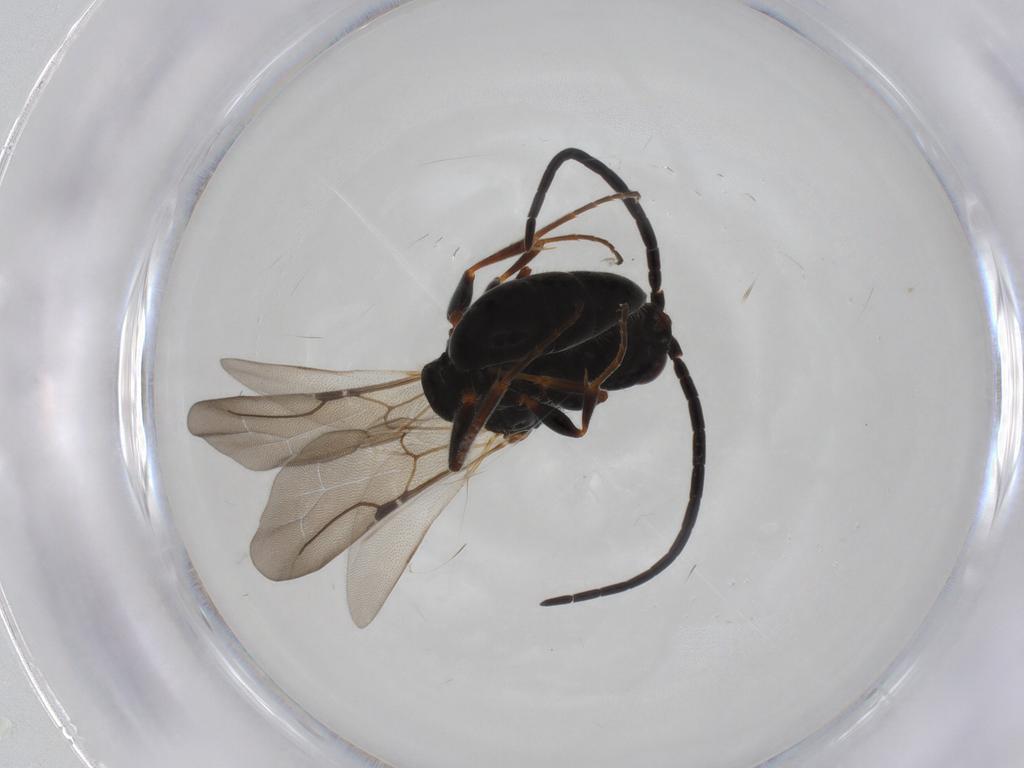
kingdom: Animalia
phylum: Arthropoda
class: Insecta
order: Hymenoptera
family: Bethylidae
